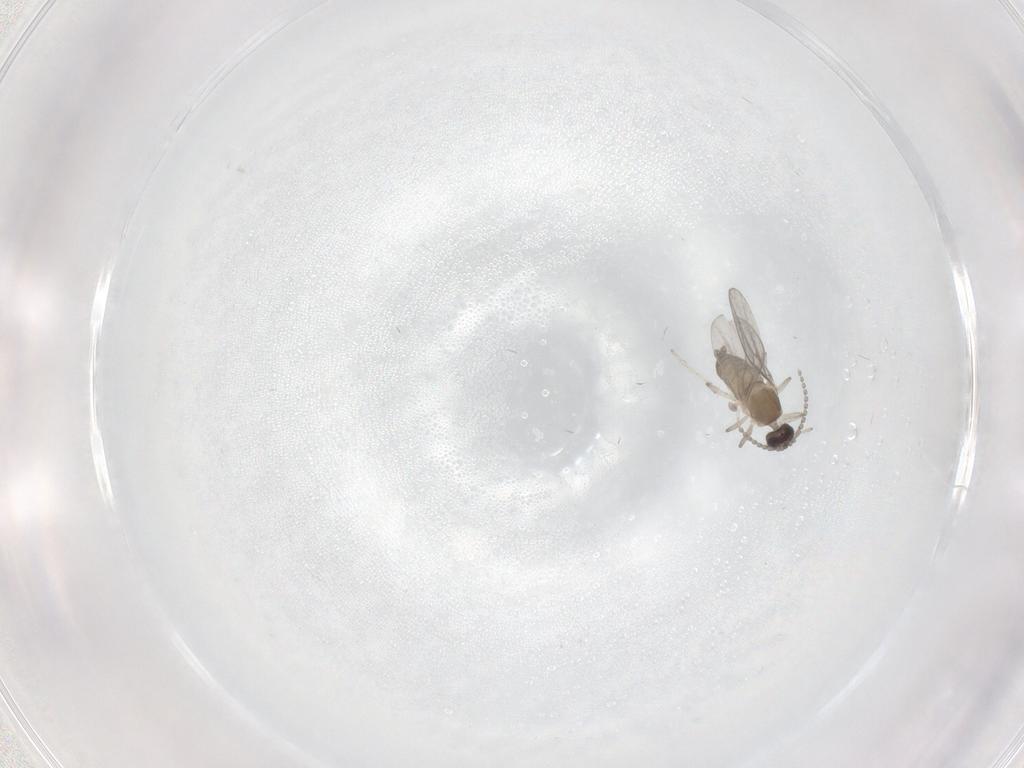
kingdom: Animalia
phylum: Arthropoda
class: Insecta
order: Diptera
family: Cecidomyiidae
